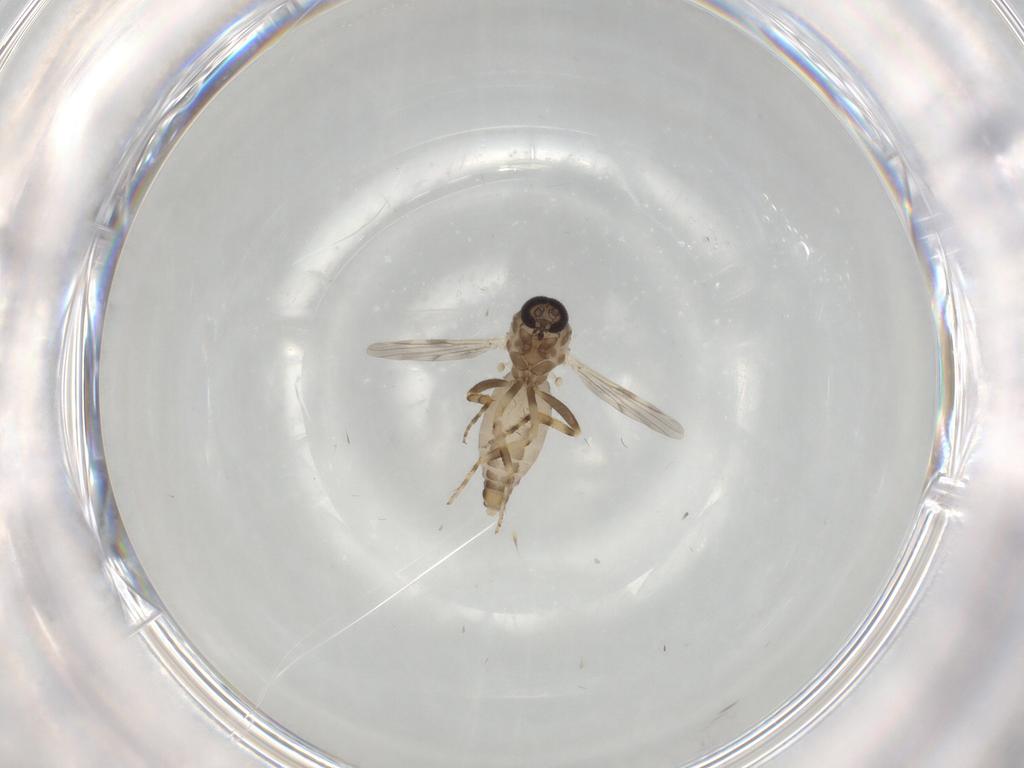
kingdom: Animalia
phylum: Arthropoda
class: Insecta
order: Diptera
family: Ceratopogonidae
